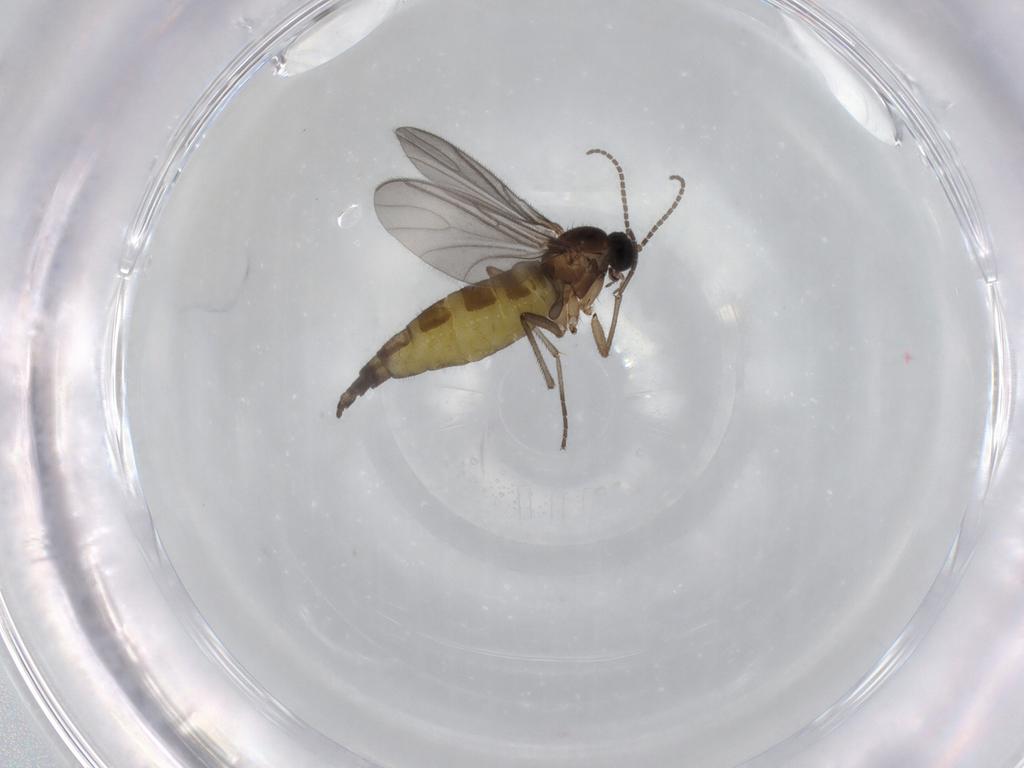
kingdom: Animalia
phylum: Arthropoda
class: Insecta
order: Diptera
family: Sciaridae
